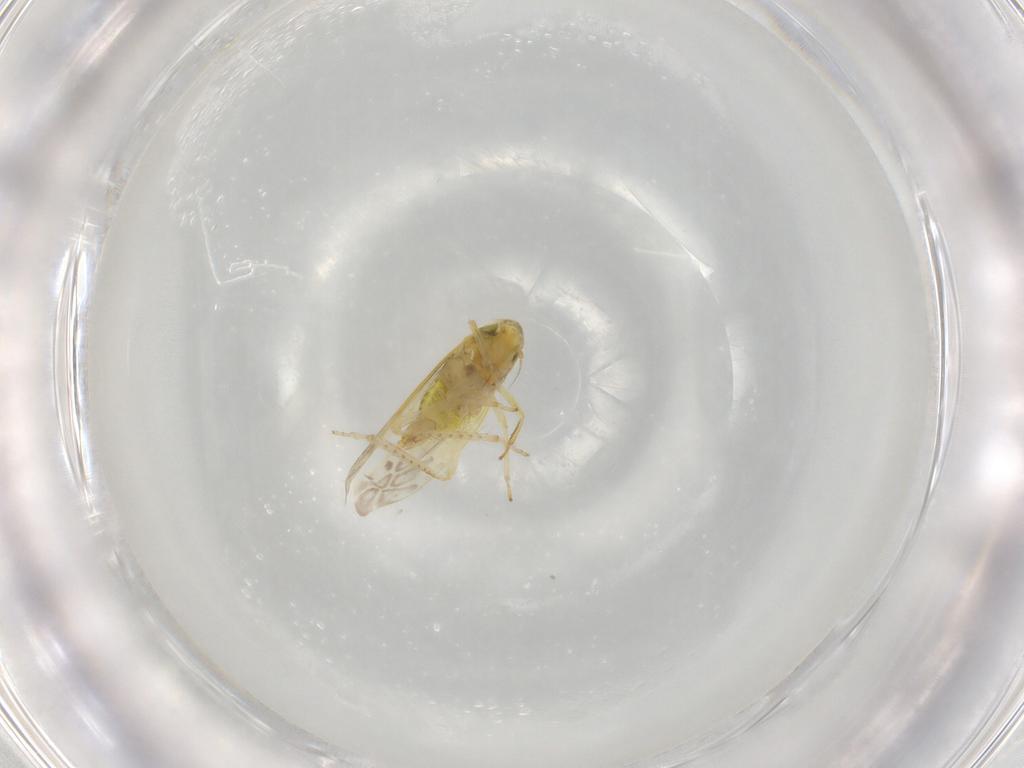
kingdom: Animalia
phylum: Arthropoda
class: Insecta
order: Hemiptera
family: Cicadellidae
